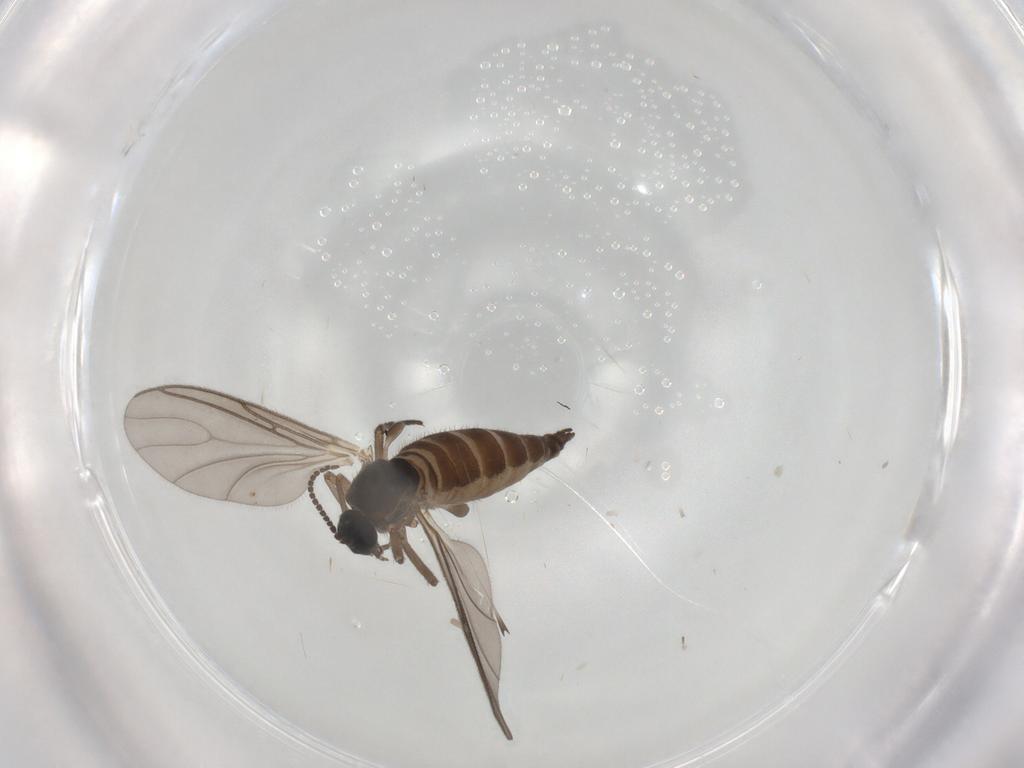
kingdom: Animalia
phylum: Arthropoda
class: Insecta
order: Diptera
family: Sciaridae
